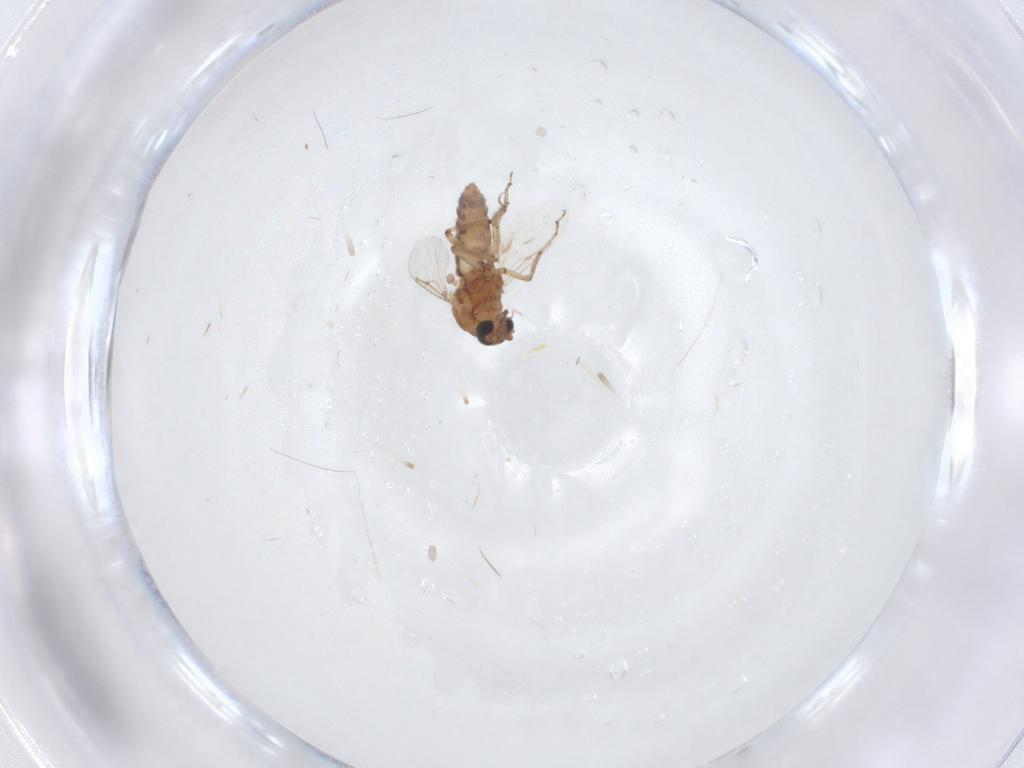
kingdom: Animalia
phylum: Arthropoda
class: Insecta
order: Diptera
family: Ceratopogonidae
